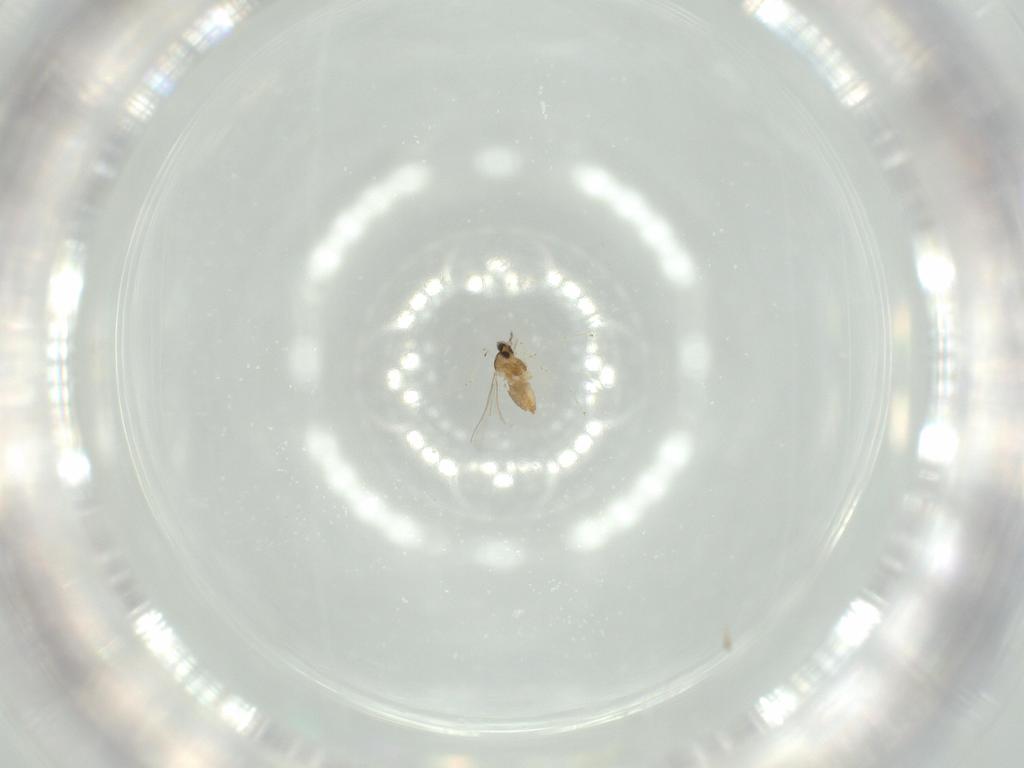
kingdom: Animalia
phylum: Arthropoda
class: Insecta
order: Diptera
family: Cecidomyiidae
